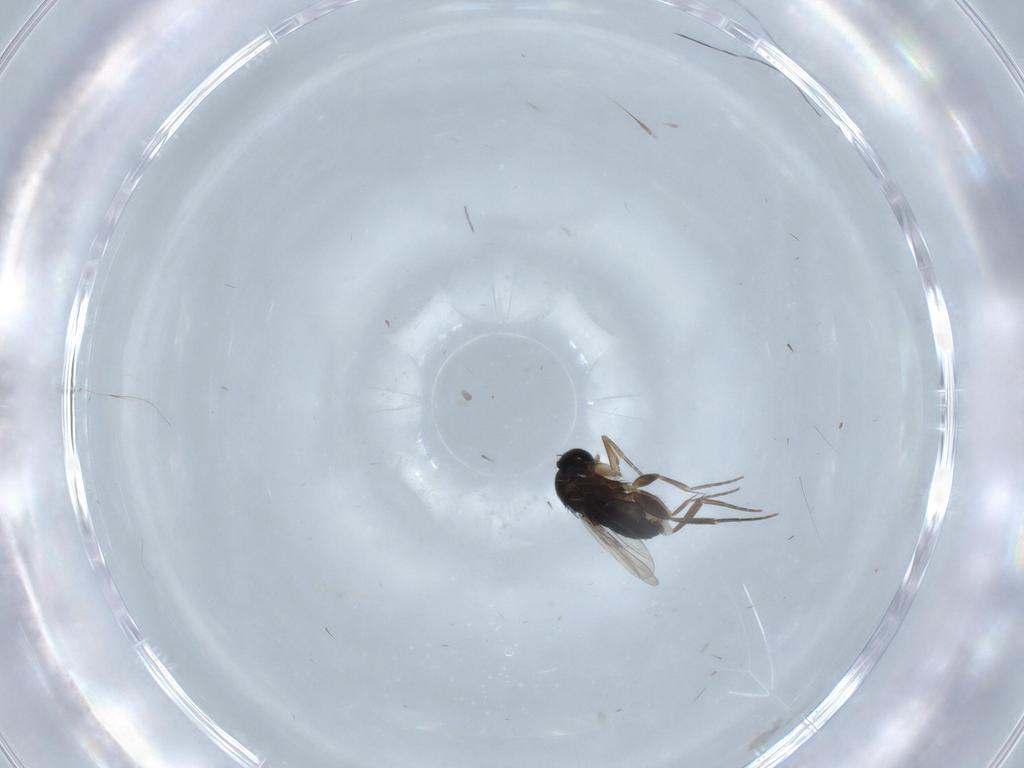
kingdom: Animalia
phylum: Arthropoda
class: Insecta
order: Diptera
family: Phoridae
